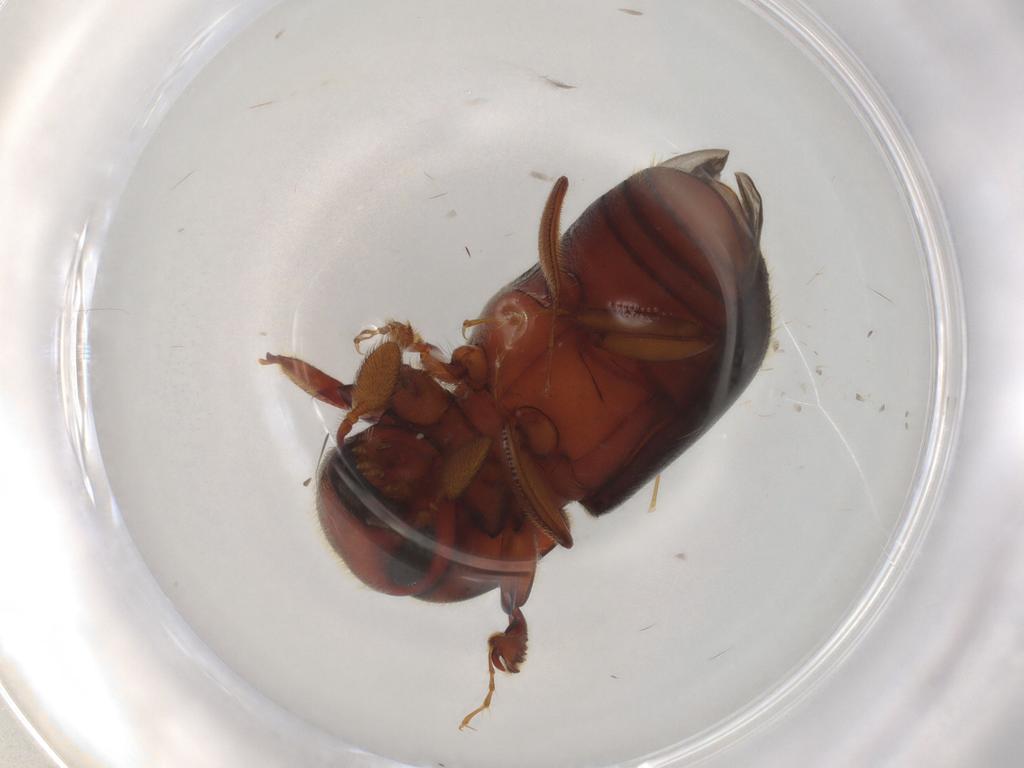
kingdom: Animalia
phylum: Arthropoda
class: Insecta
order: Coleoptera
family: Curculionidae
